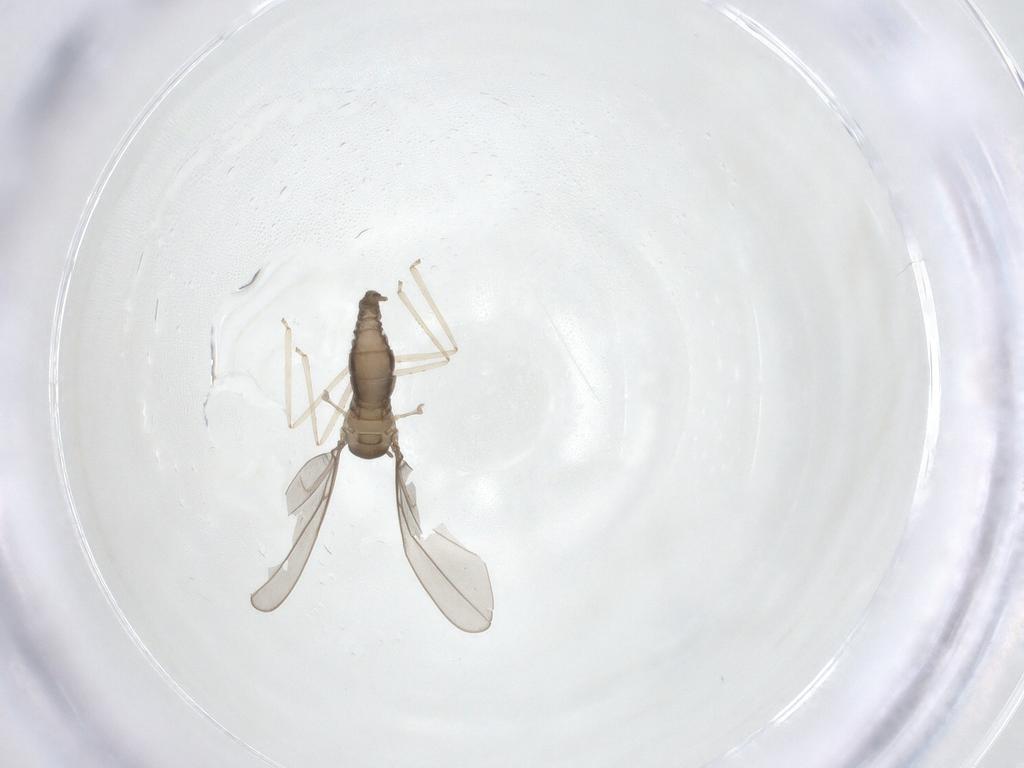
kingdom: Animalia
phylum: Arthropoda
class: Insecta
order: Diptera
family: Cecidomyiidae
